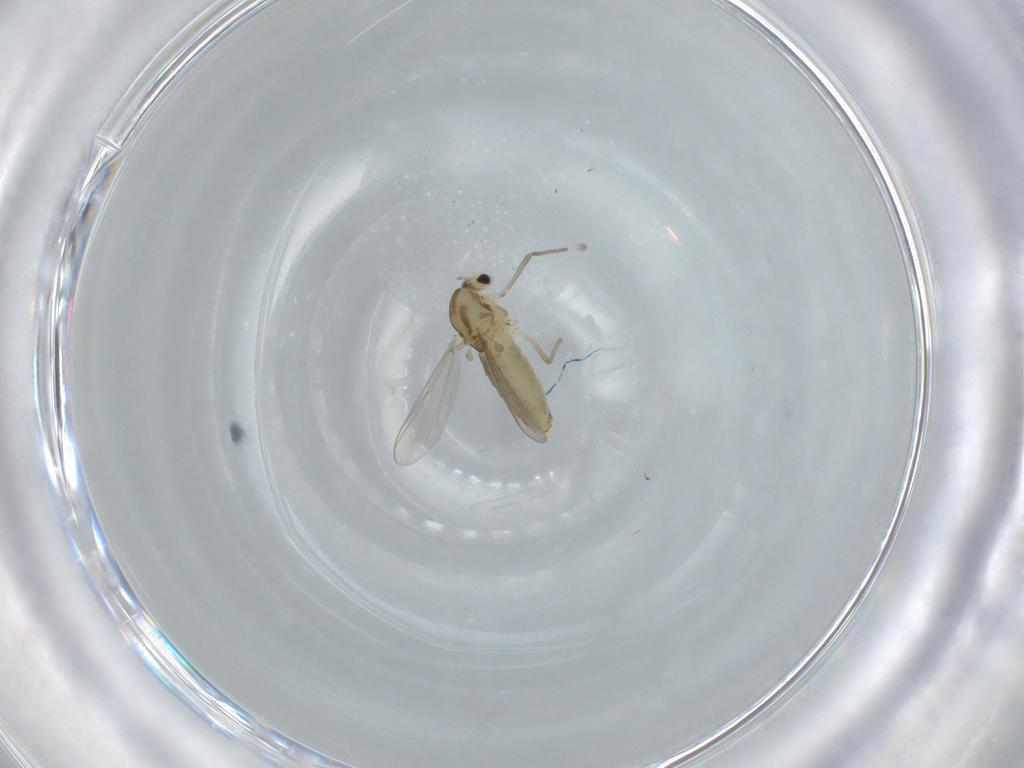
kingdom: Animalia
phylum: Arthropoda
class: Insecta
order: Diptera
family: Chironomidae
